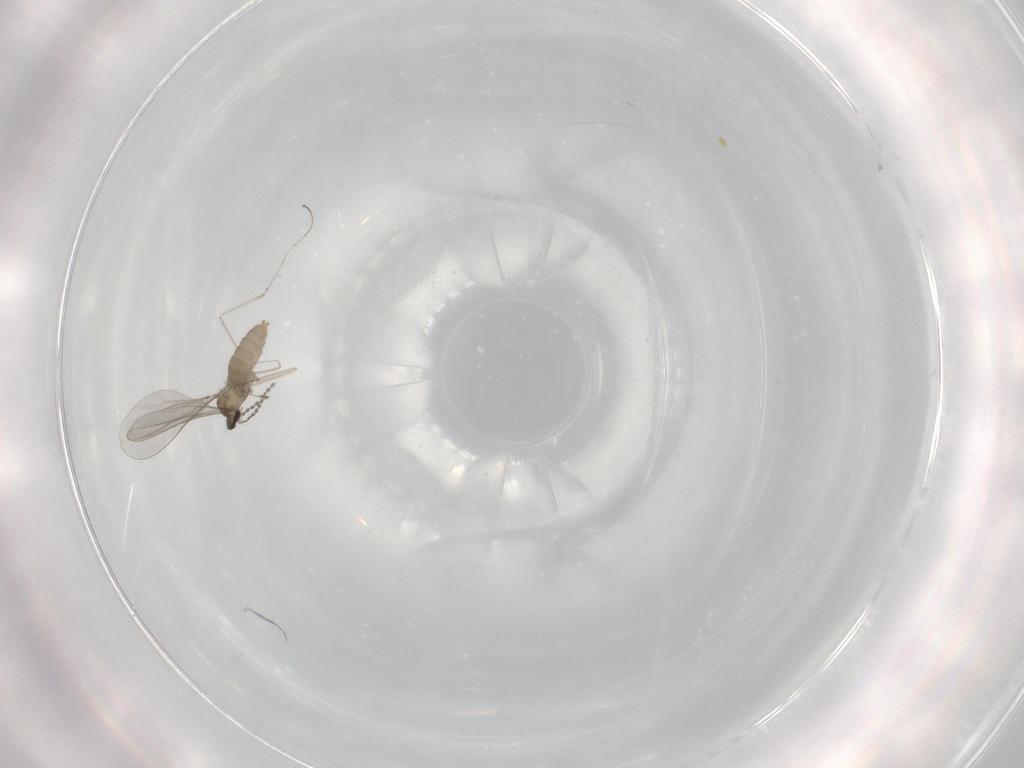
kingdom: Animalia
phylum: Arthropoda
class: Insecta
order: Diptera
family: Cecidomyiidae
